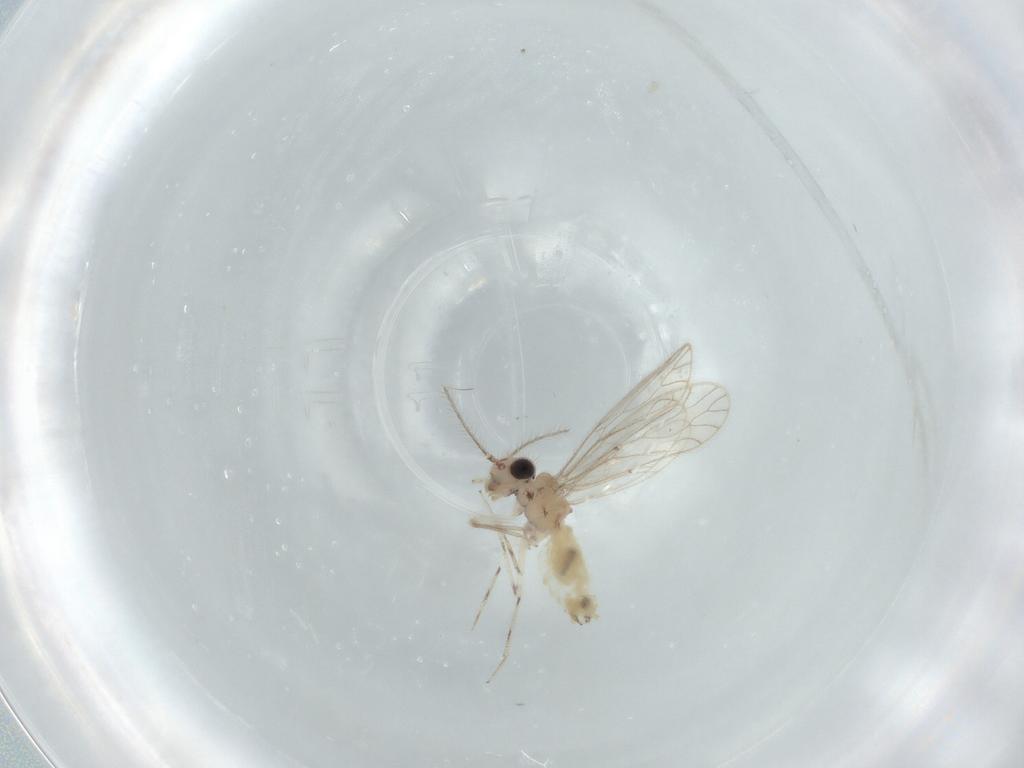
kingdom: Animalia
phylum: Arthropoda
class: Insecta
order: Psocodea
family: Caeciliusidae
